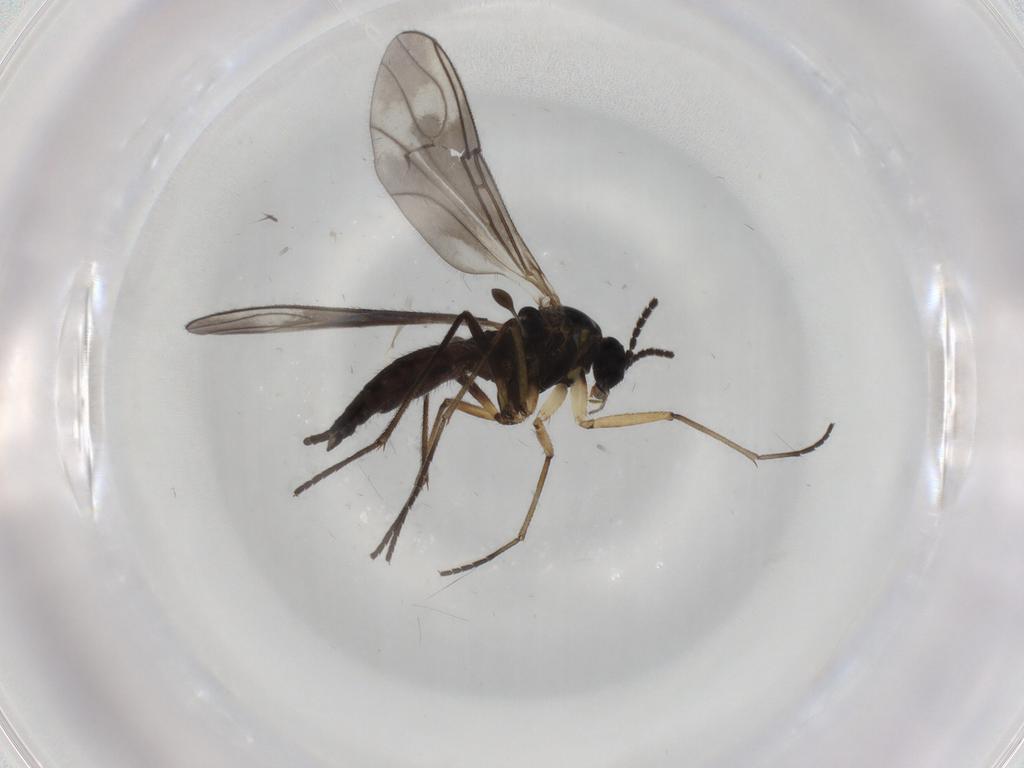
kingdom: Animalia
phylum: Arthropoda
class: Insecta
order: Diptera
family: Sciaridae
